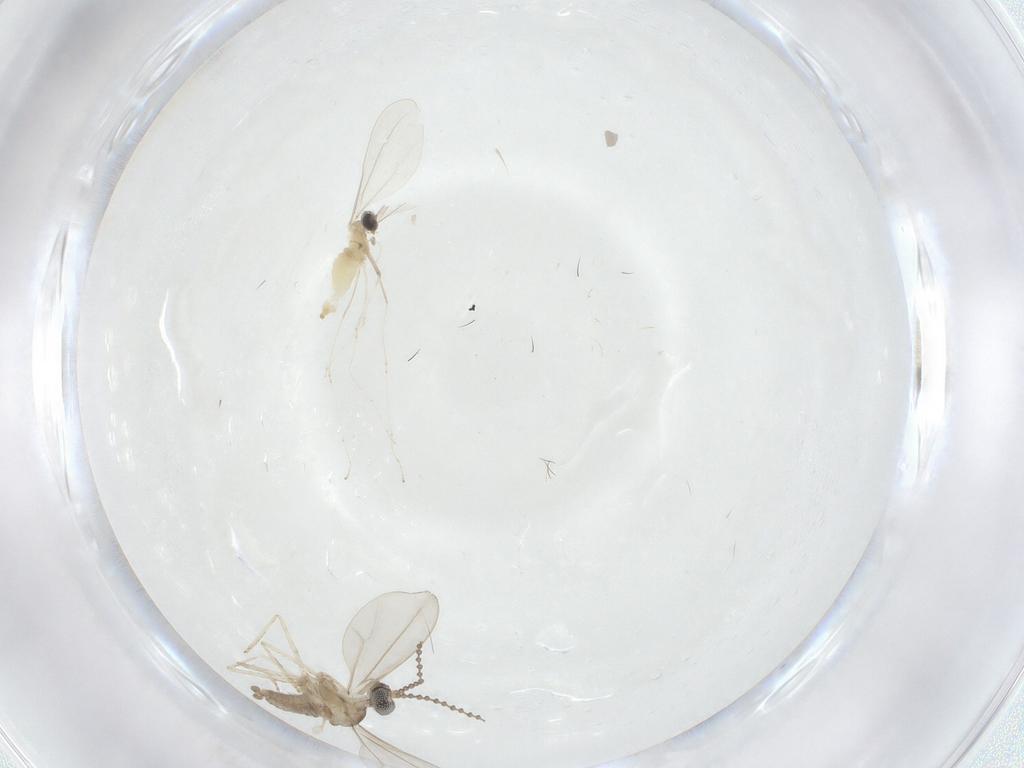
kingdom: Animalia
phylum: Arthropoda
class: Insecta
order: Diptera
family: Cecidomyiidae
